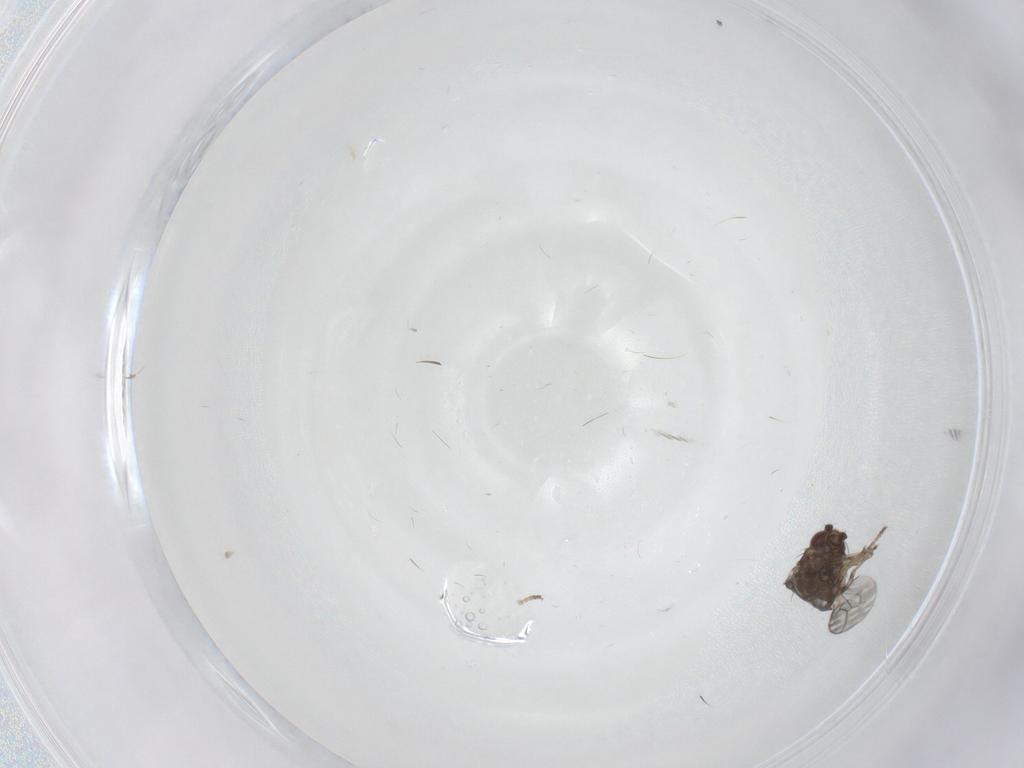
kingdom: Animalia
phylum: Arthropoda
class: Insecta
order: Diptera
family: Sphaeroceridae
